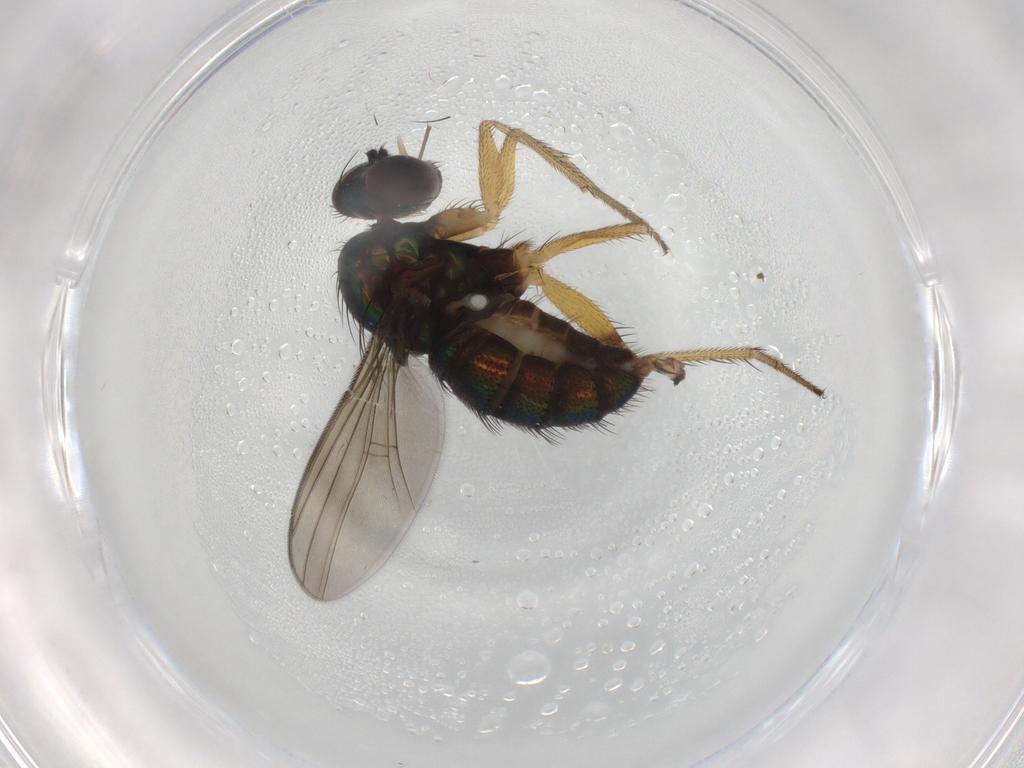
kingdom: Animalia
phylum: Arthropoda
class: Insecta
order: Diptera
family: Dolichopodidae
